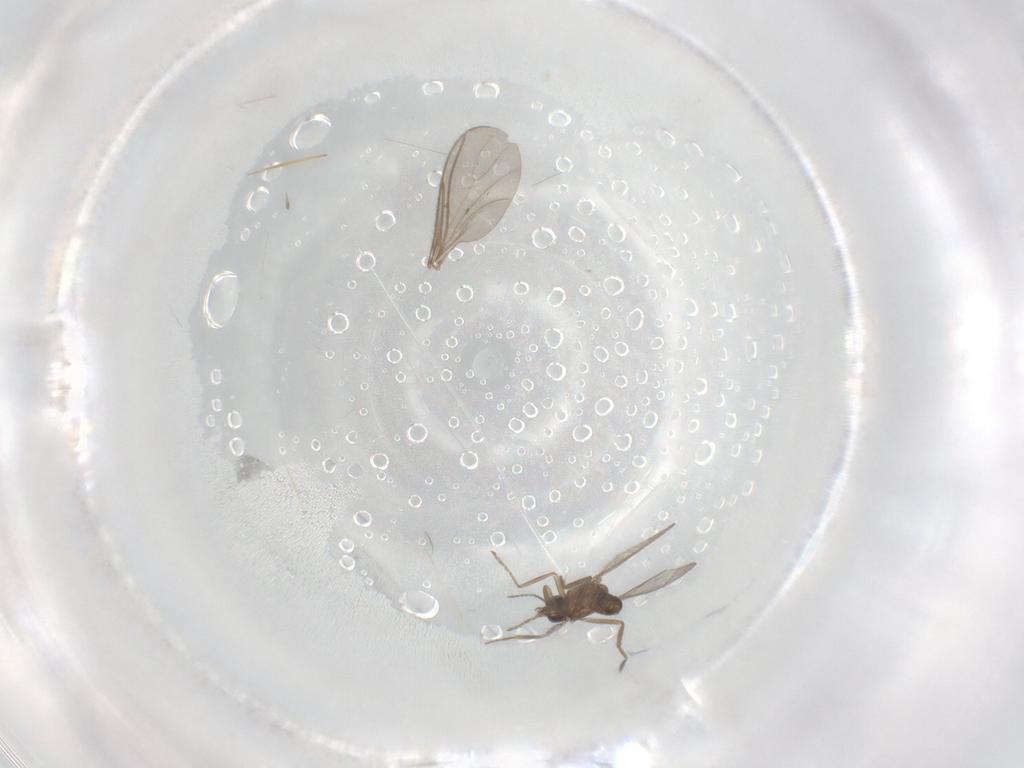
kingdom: Animalia
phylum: Arthropoda
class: Insecta
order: Diptera
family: Ceratopogonidae
